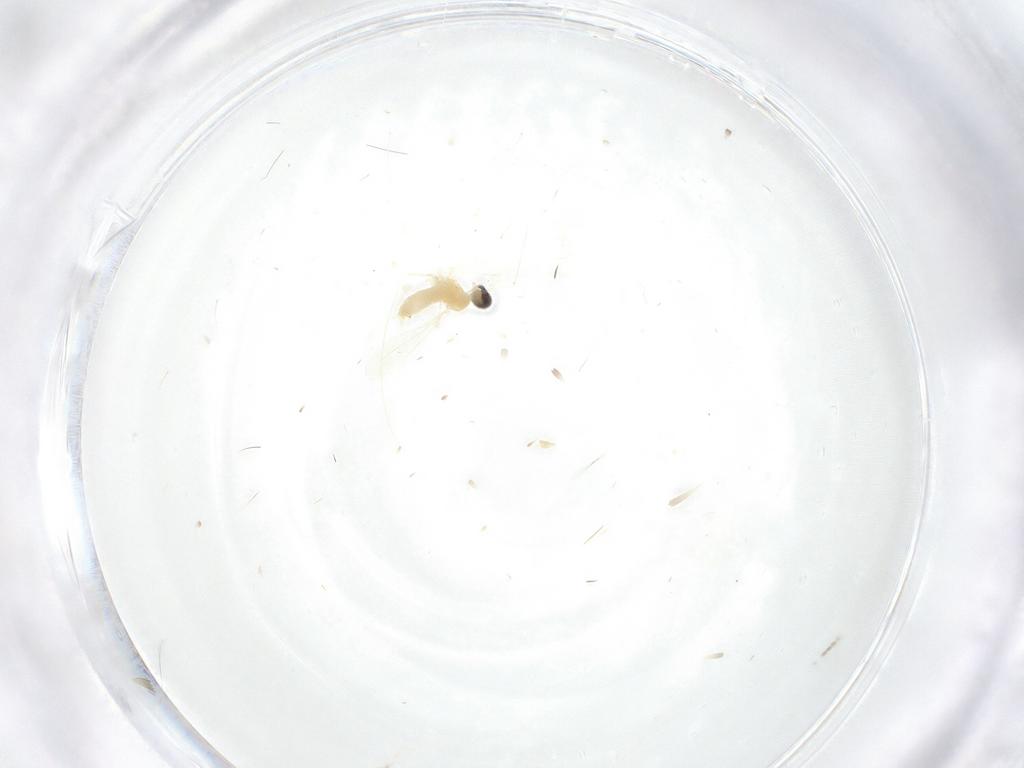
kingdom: Animalia
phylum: Arthropoda
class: Insecta
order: Diptera
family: Cecidomyiidae
